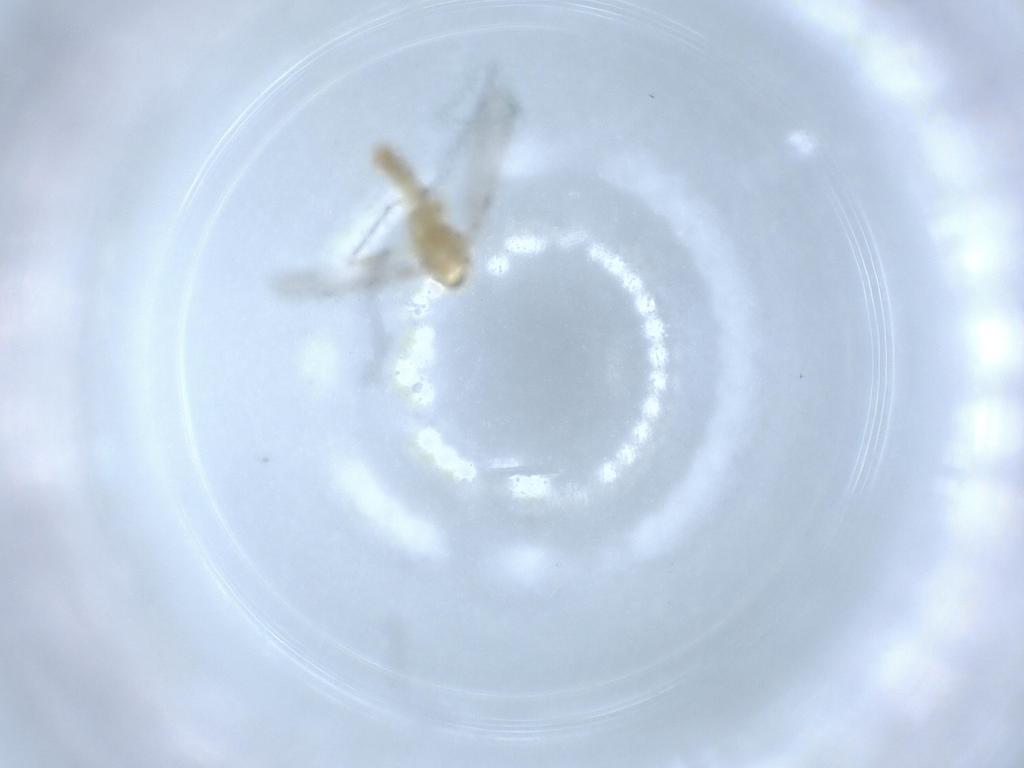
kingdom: Animalia
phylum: Arthropoda
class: Insecta
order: Diptera
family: Chironomidae
